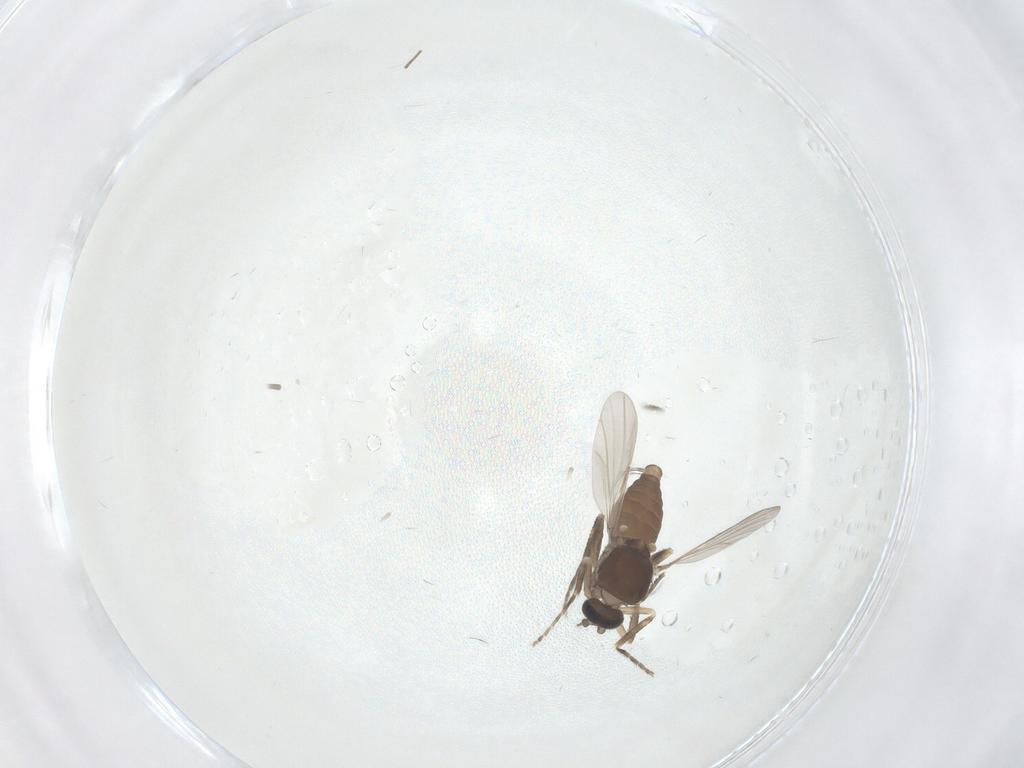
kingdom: Animalia
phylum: Arthropoda
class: Insecta
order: Diptera
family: Ceratopogonidae
